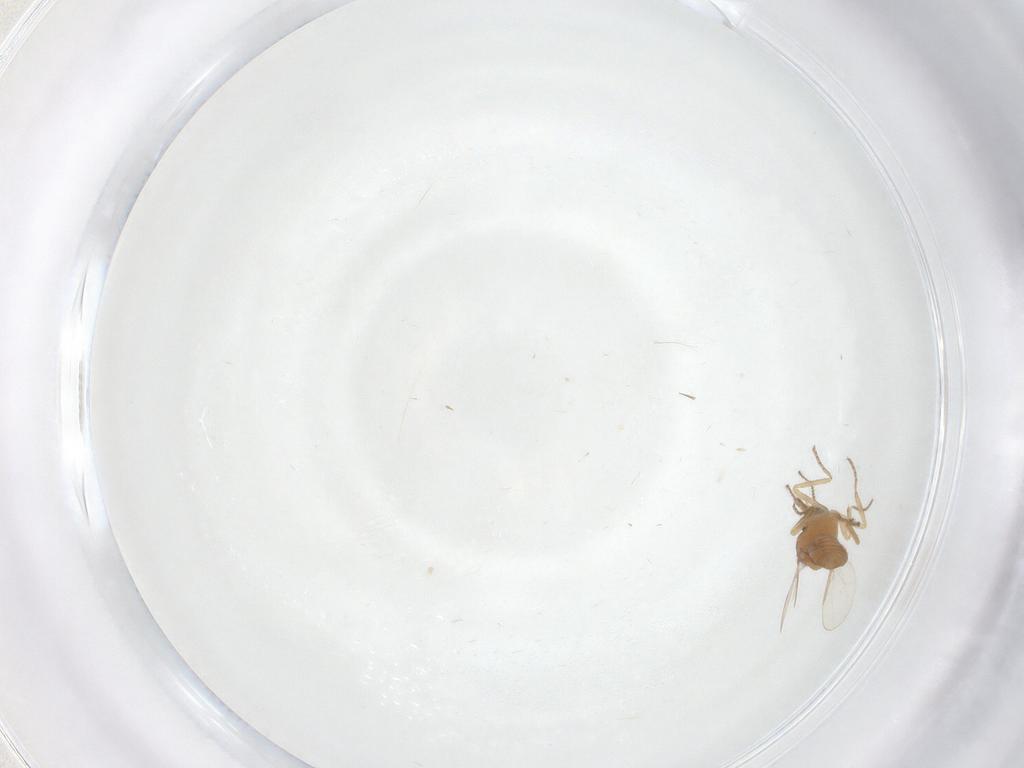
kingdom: Animalia
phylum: Arthropoda
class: Insecta
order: Diptera
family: Ceratopogonidae
